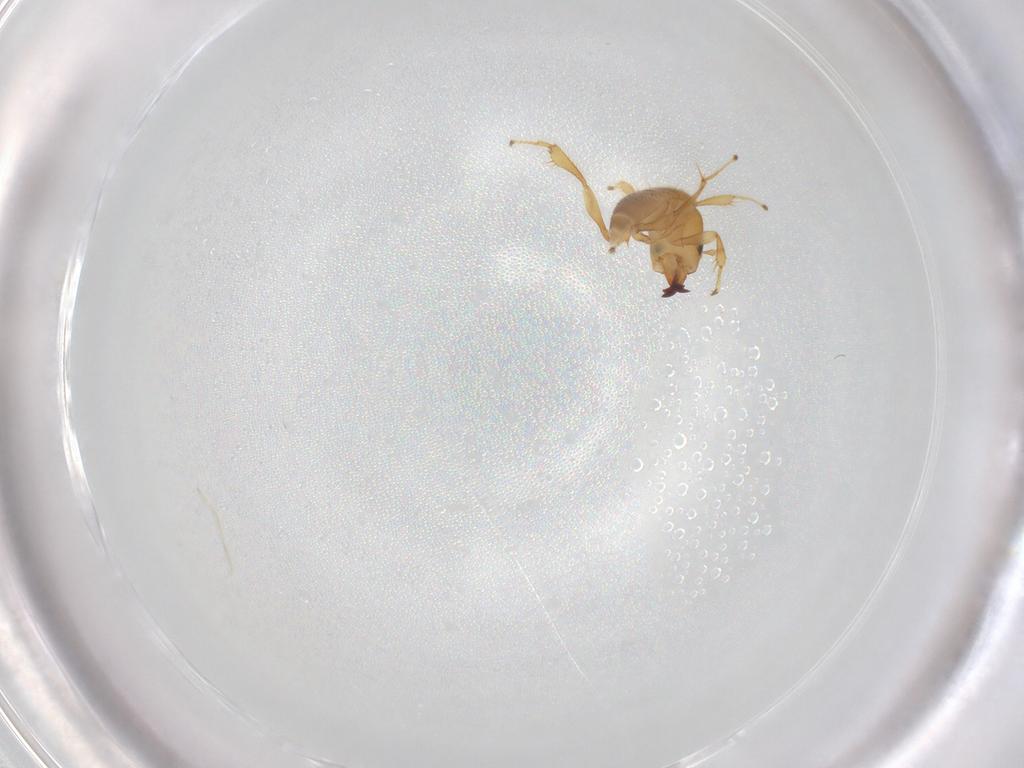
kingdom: Animalia
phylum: Arthropoda
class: Insecta
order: Hymenoptera
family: Pteromalidae
